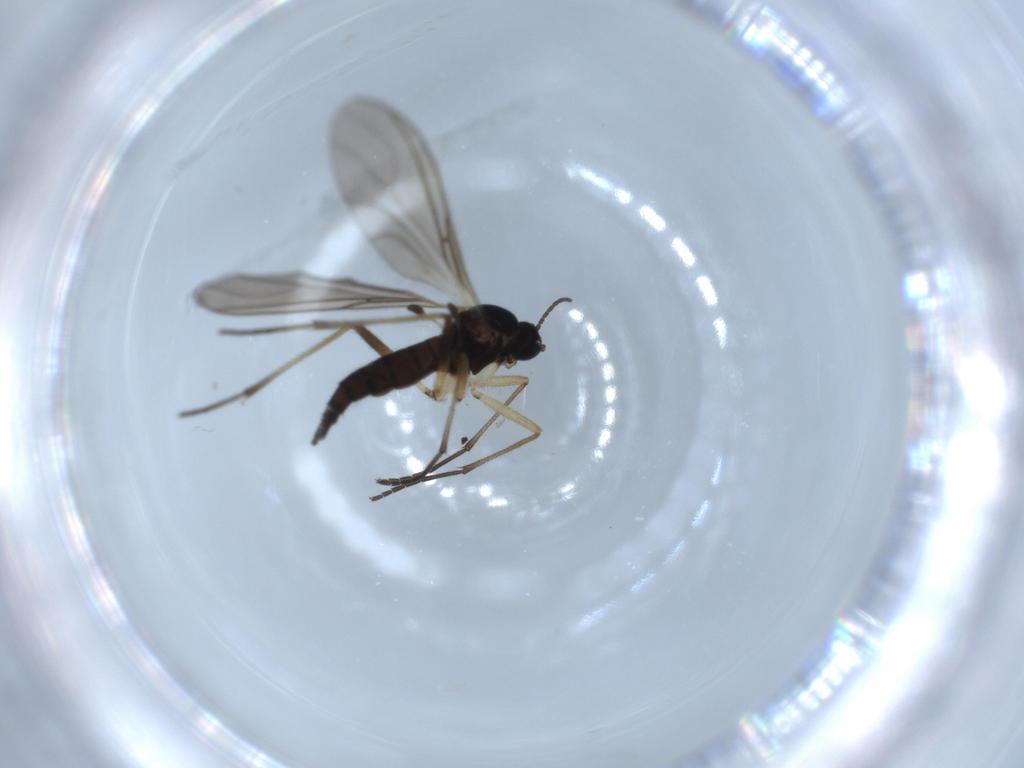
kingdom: Animalia
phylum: Arthropoda
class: Insecta
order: Diptera
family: Sciaridae
